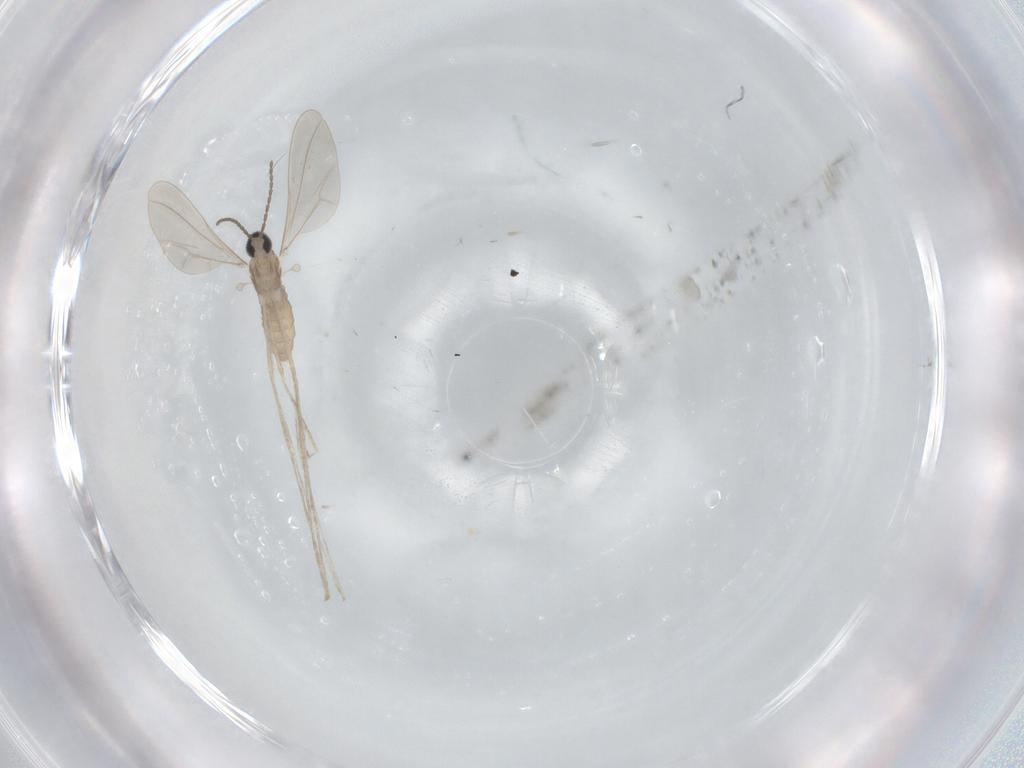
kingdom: Animalia
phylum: Arthropoda
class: Insecta
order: Diptera
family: Cecidomyiidae
